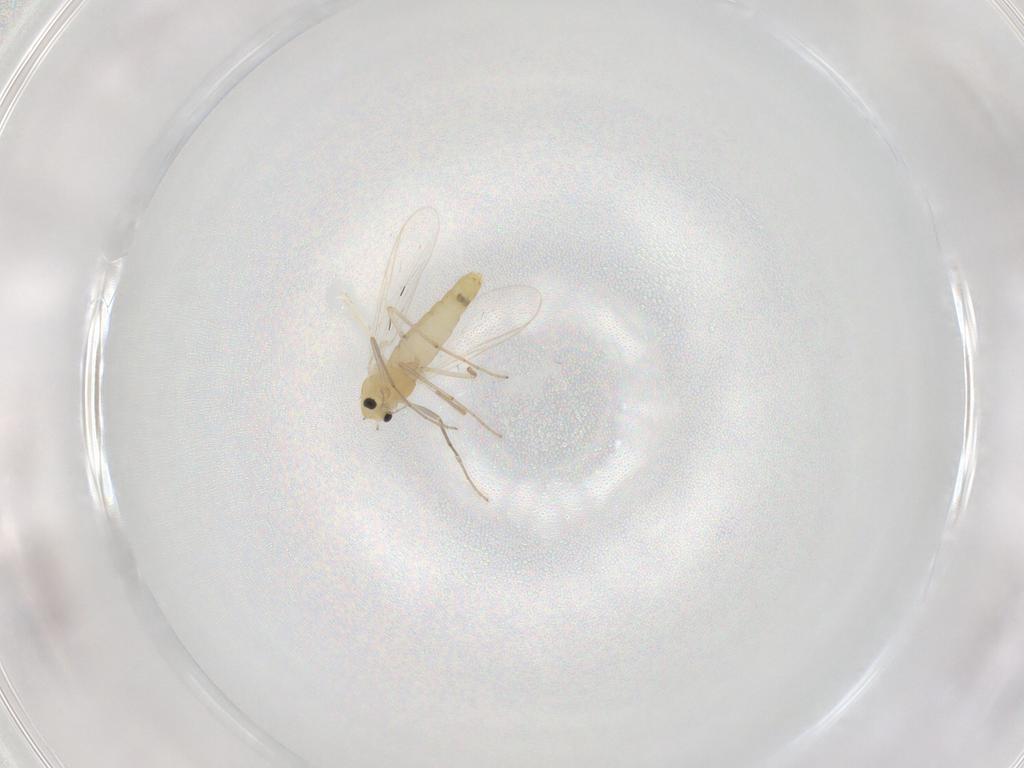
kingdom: Animalia
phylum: Arthropoda
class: Insecta
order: Diptera
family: Chironomidae
